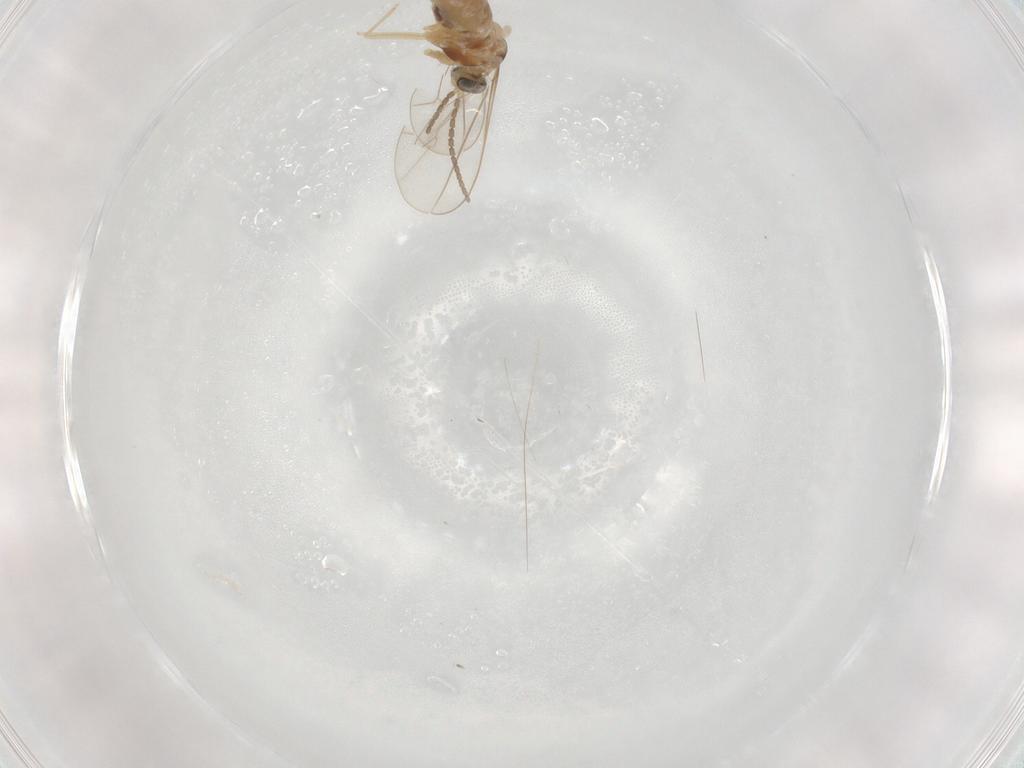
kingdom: Animalia
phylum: Arthropoda
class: Insecta
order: Diptera
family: Cecidomyiidae
